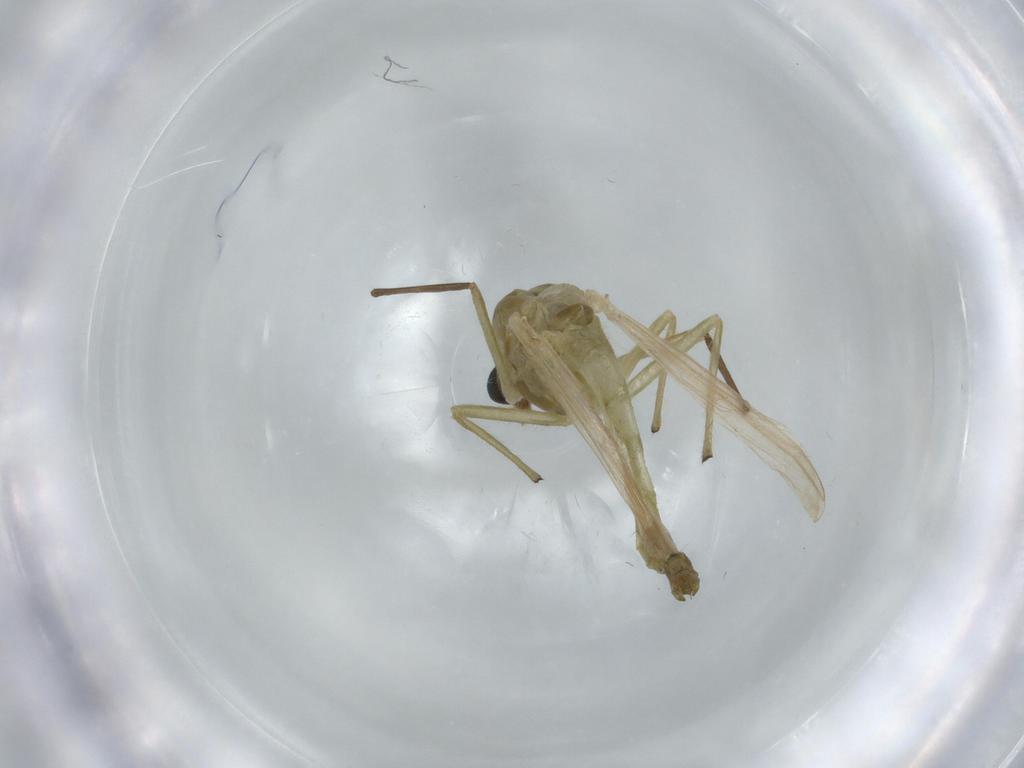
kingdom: Animalia
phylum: Arthropoda
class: Insecta
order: Diptera
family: Chironomidae
